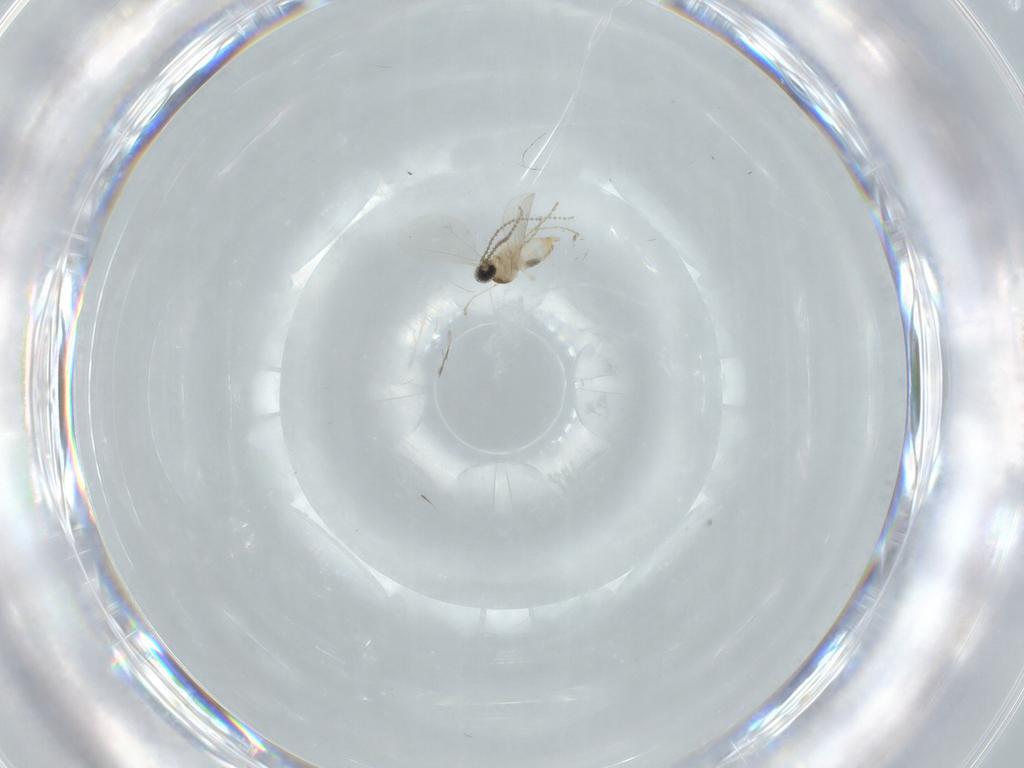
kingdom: Animalia
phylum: Arthropoda
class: Insecta
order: Diptera
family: Cecidomyiidae
